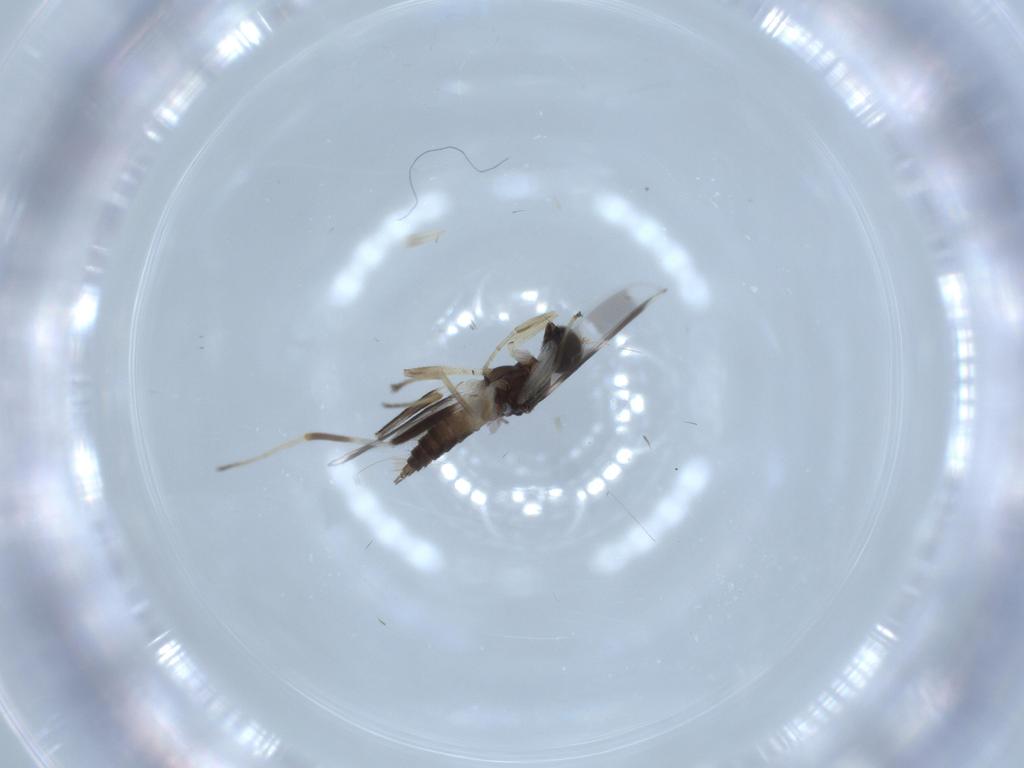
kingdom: Animalia
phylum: Arthropoda
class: Insecta
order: Diptera
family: Hybotidae
